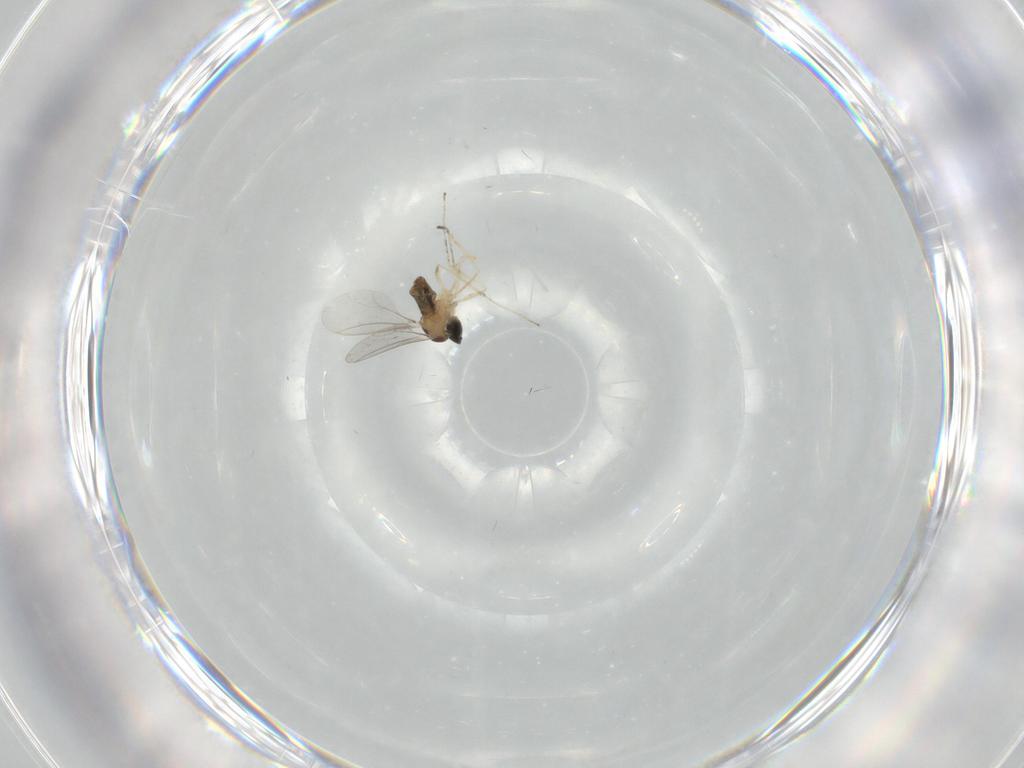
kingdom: Animalia
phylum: Arthropoda
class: Insecta
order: Diptera
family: Cecidomyiidae
